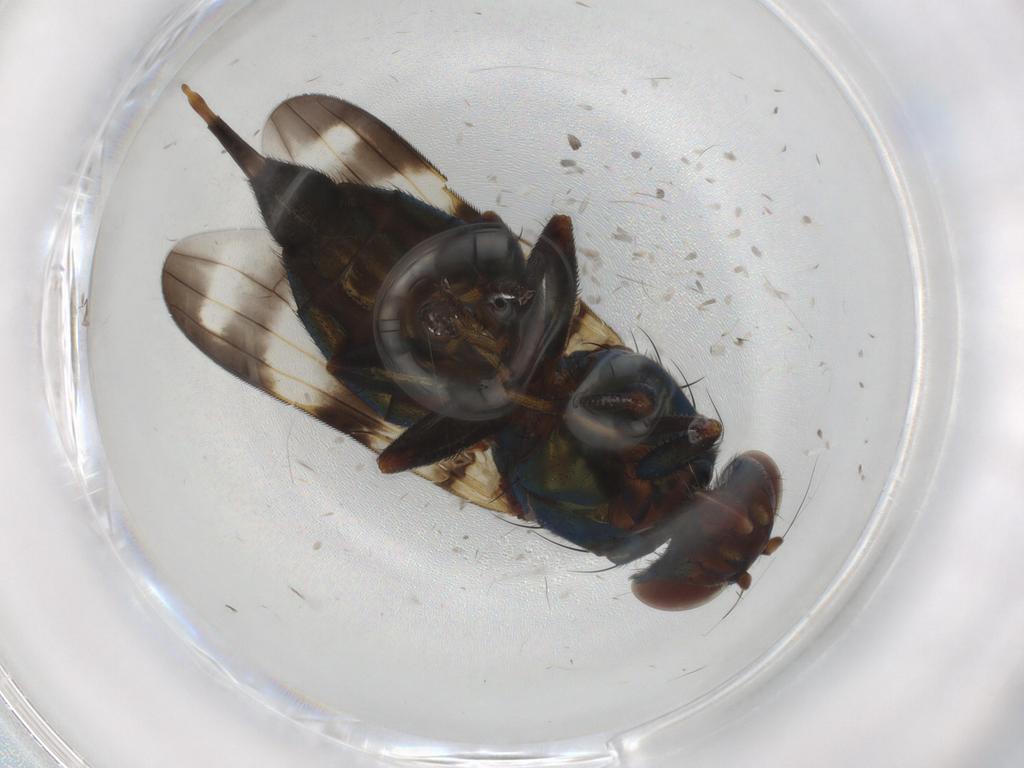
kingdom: Animalia
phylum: Arthropoda
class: Insecta
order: Diptera
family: Ulidiidae
